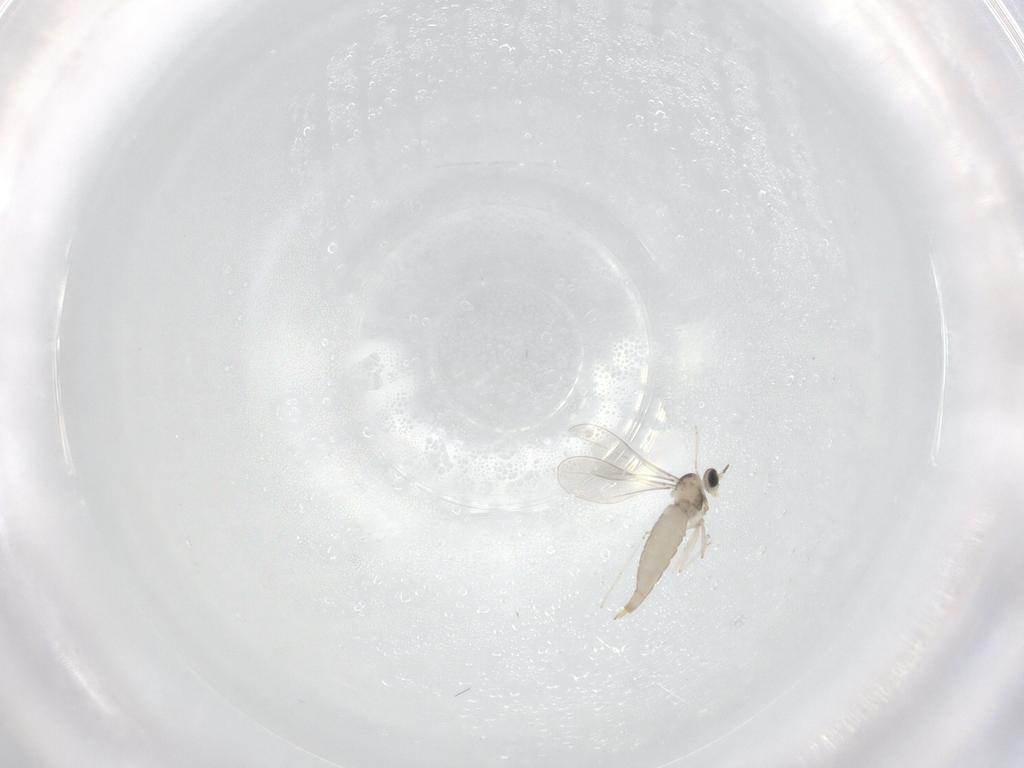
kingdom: Animalia
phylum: Arthropoda
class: Insecta
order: Diptera
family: Cecidomyiidae
